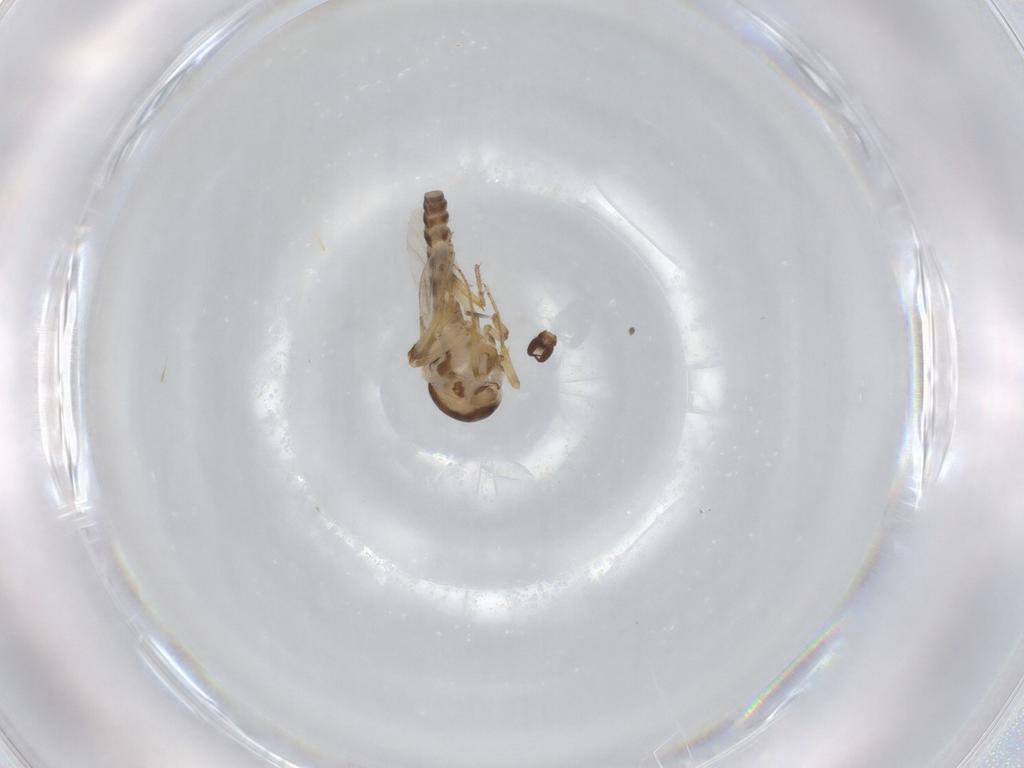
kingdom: Animalia
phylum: Arthropoda
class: Insecta
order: Diptera
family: Ceratopogonidae
